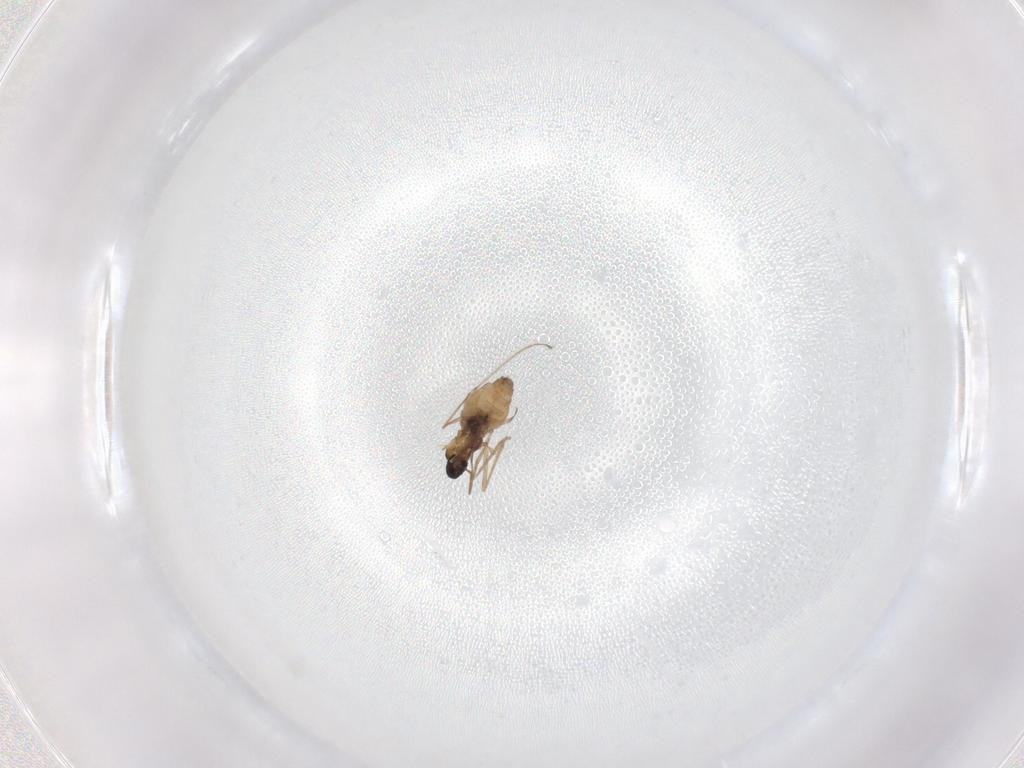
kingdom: Animalia
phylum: Arthropoda
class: Insecta
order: Diptera
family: Cecidomyiidae
